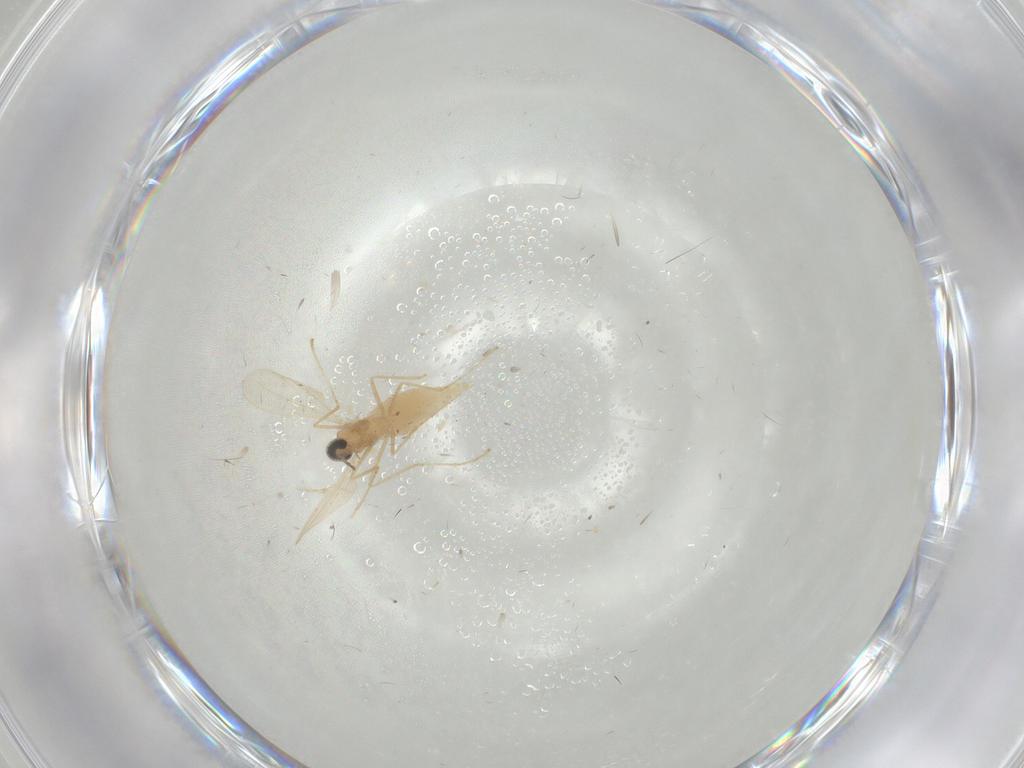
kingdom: Animalia
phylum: Arthropoda
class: Insecta
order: Diptera
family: Cecidomyiidae
